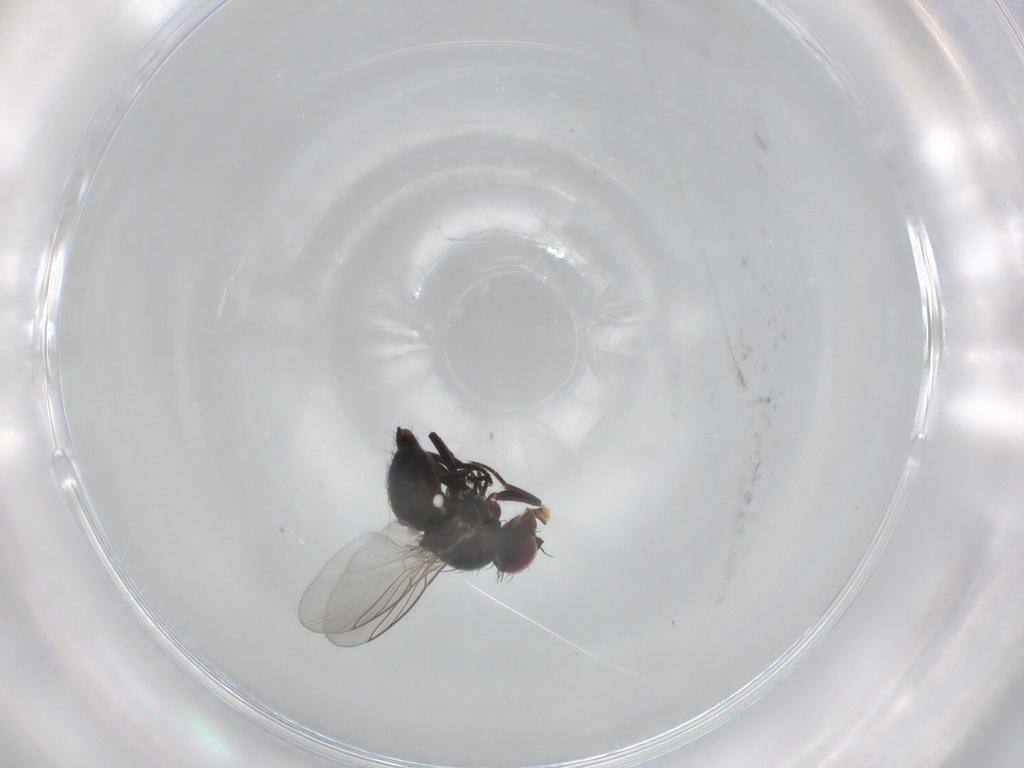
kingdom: Animalia
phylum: Arthropoda
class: Insecta
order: Diptera
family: Agromyzidae
